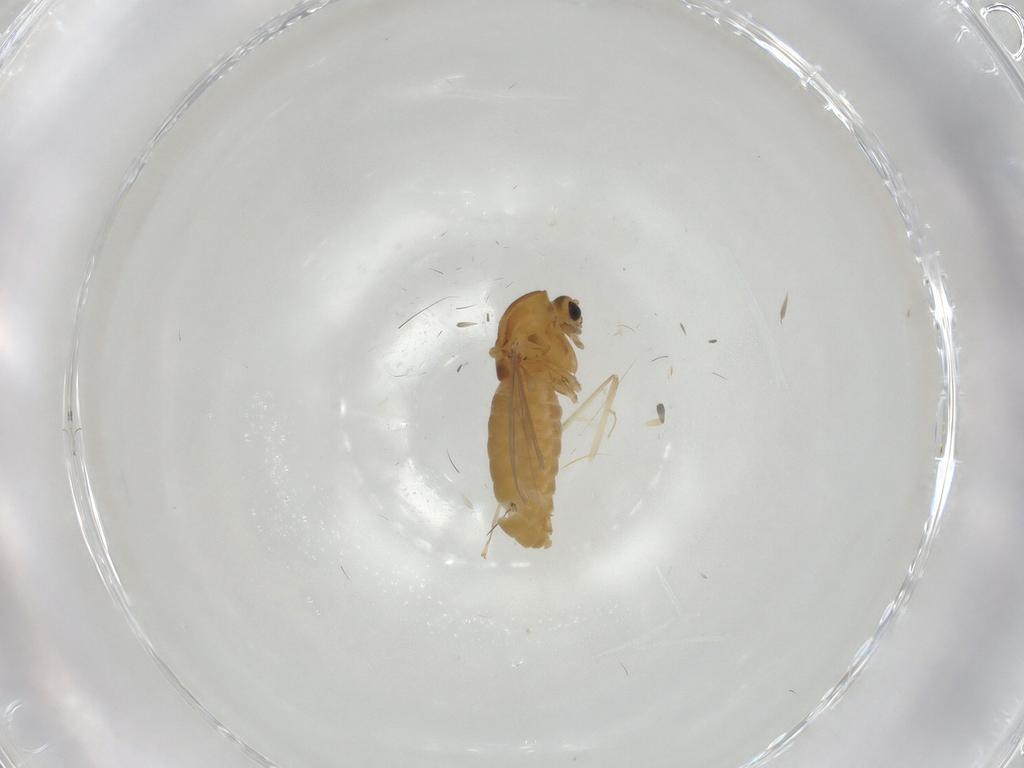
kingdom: Animalia
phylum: Arthropoda
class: Insecta
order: Diptera
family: Chironomidae
